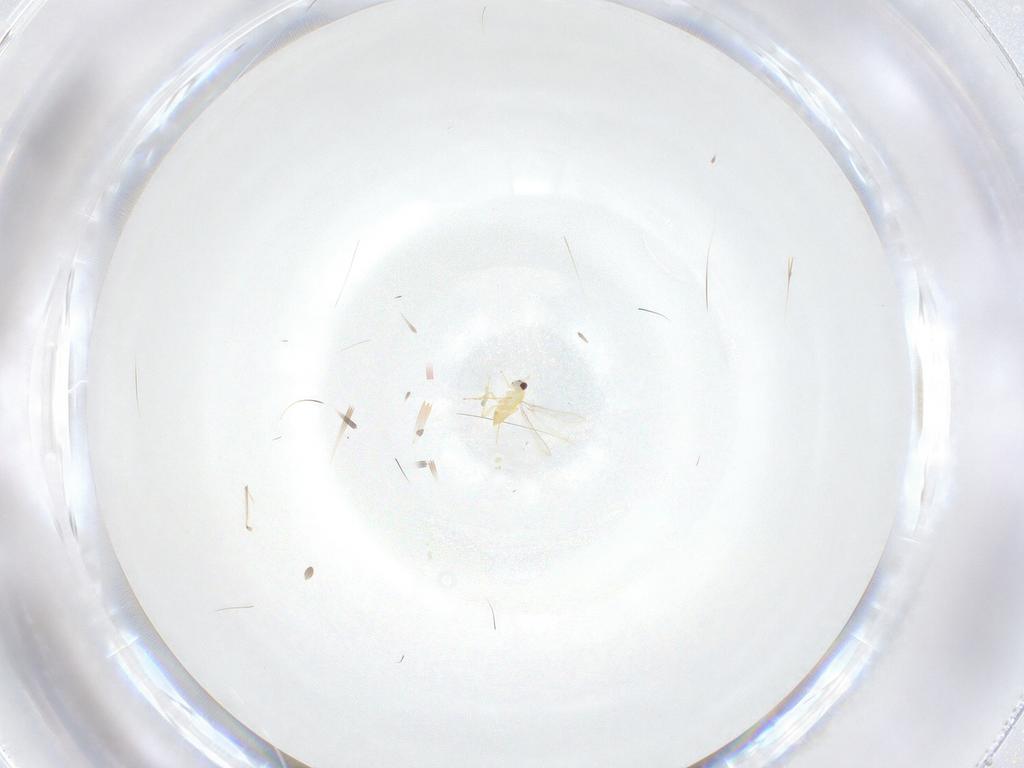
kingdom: Animalia
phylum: Arthropoda
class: Insecta
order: Hymenoptera
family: Mymaridae
